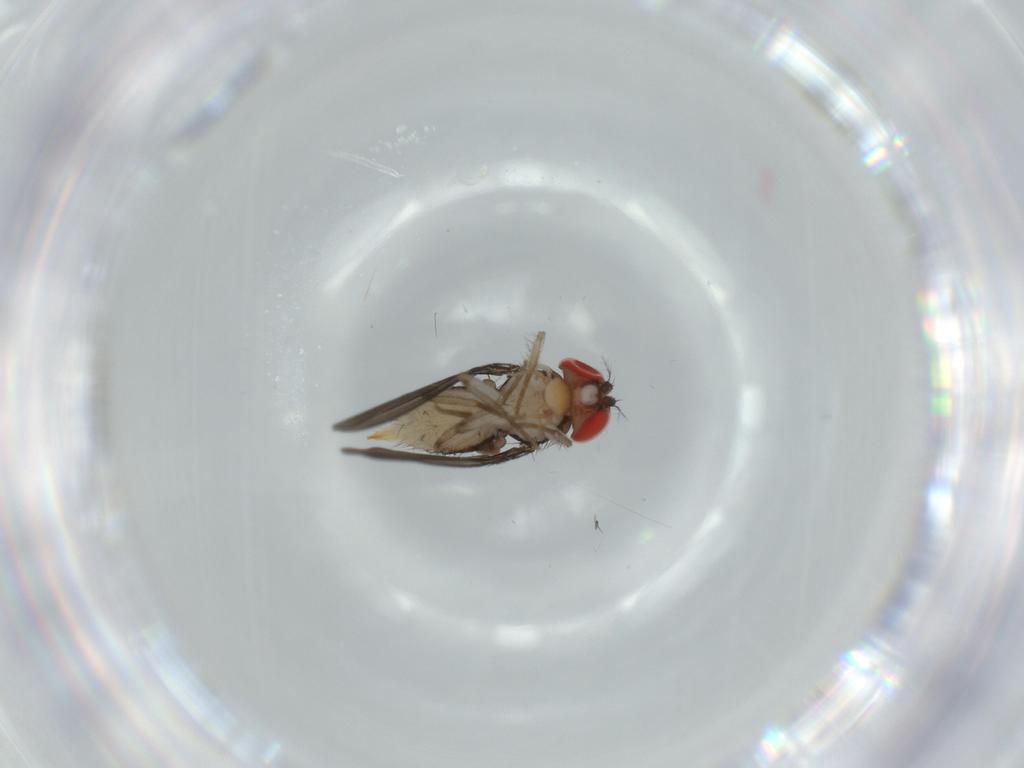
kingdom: Animalia
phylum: Arthropoda
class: Insecta
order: Diptera
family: Drosophilidae
